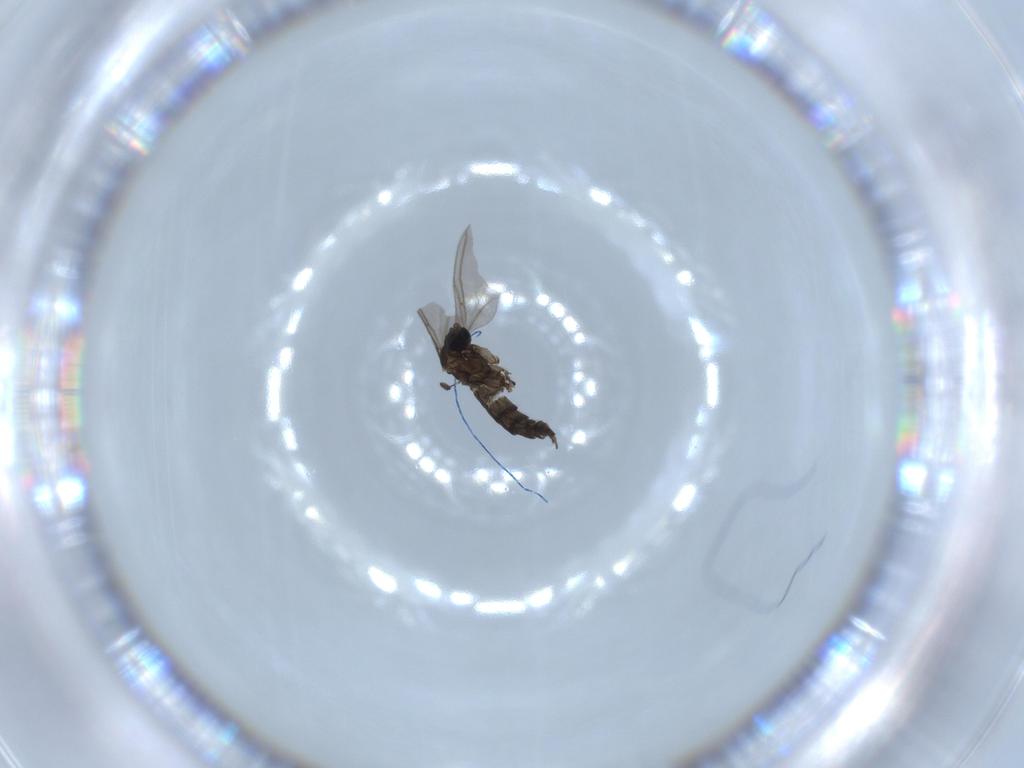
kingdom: Animalia
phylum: Arthropoda
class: Insecta
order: Diptera
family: Sciaridae
